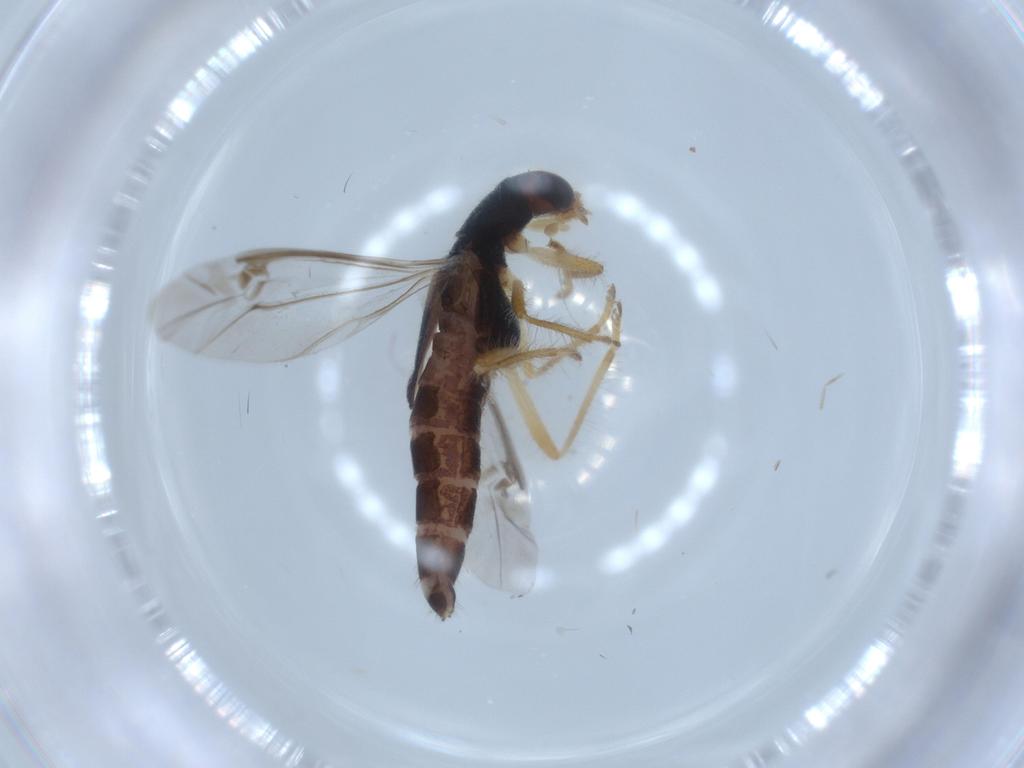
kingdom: Animalia
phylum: Arthropoda
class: Insecta
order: Coleoptera
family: Cleridae
